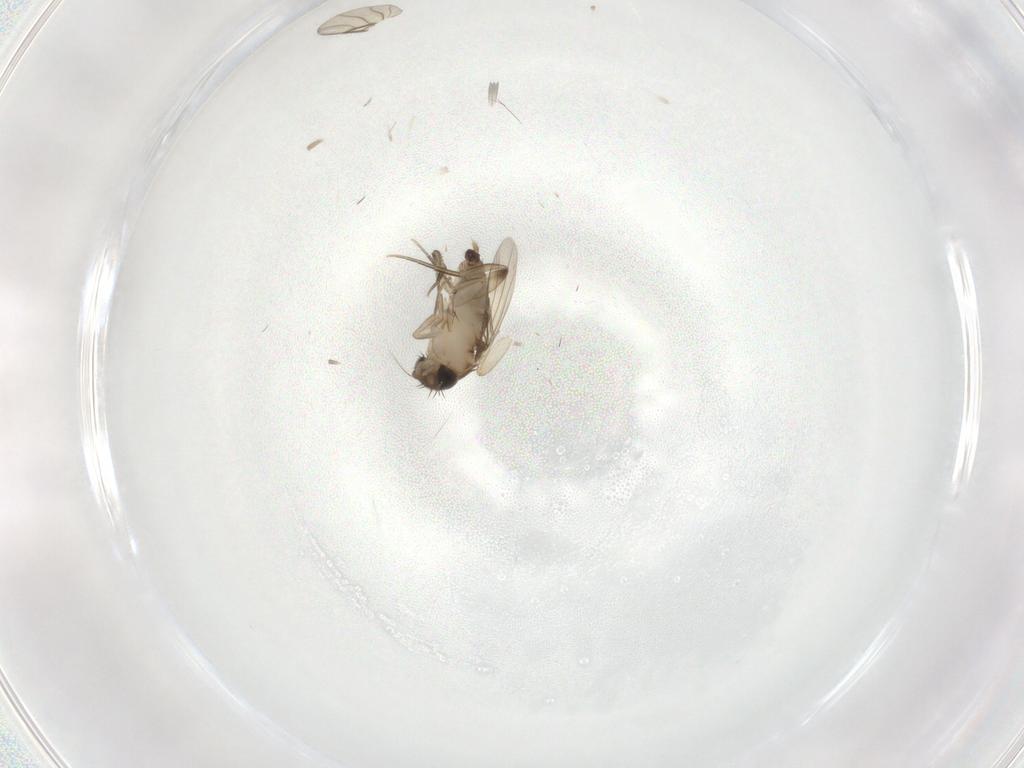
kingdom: Animalia
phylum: Arthropoda
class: Insecta
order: Diptera
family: Phoridae
